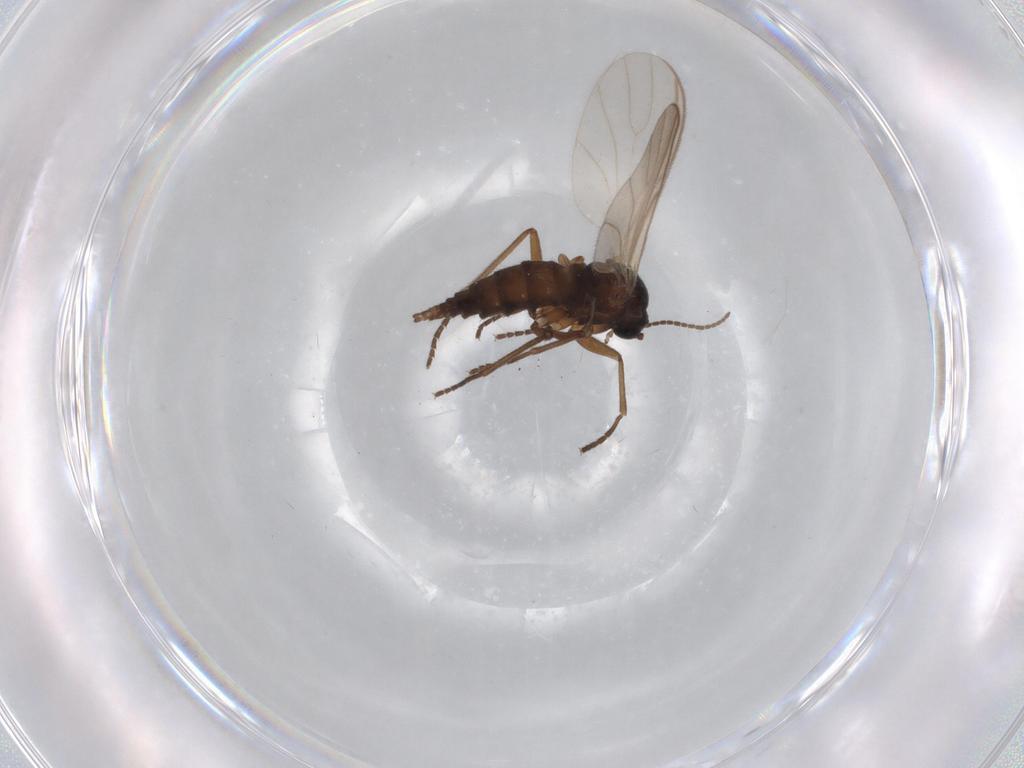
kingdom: Animalia
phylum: Arthropoda
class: Insecta
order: Diptera
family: Sciaridae
